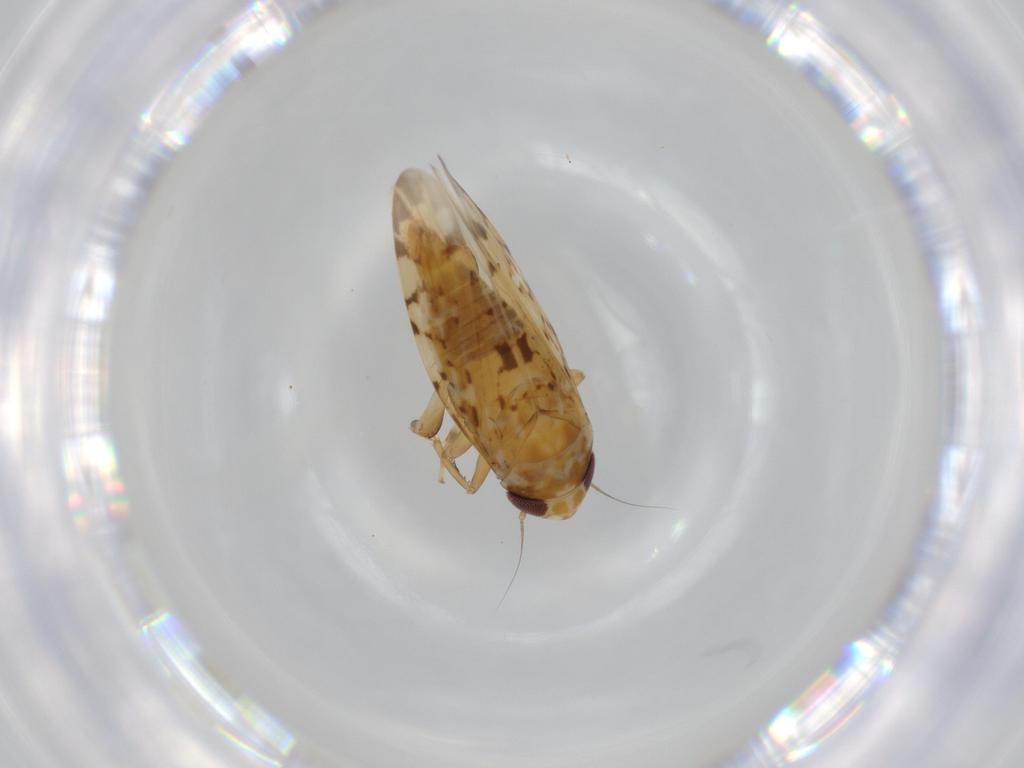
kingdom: Animalia
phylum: Arthropoda
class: Insecta
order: Hemiptera
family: Cicadellidae
